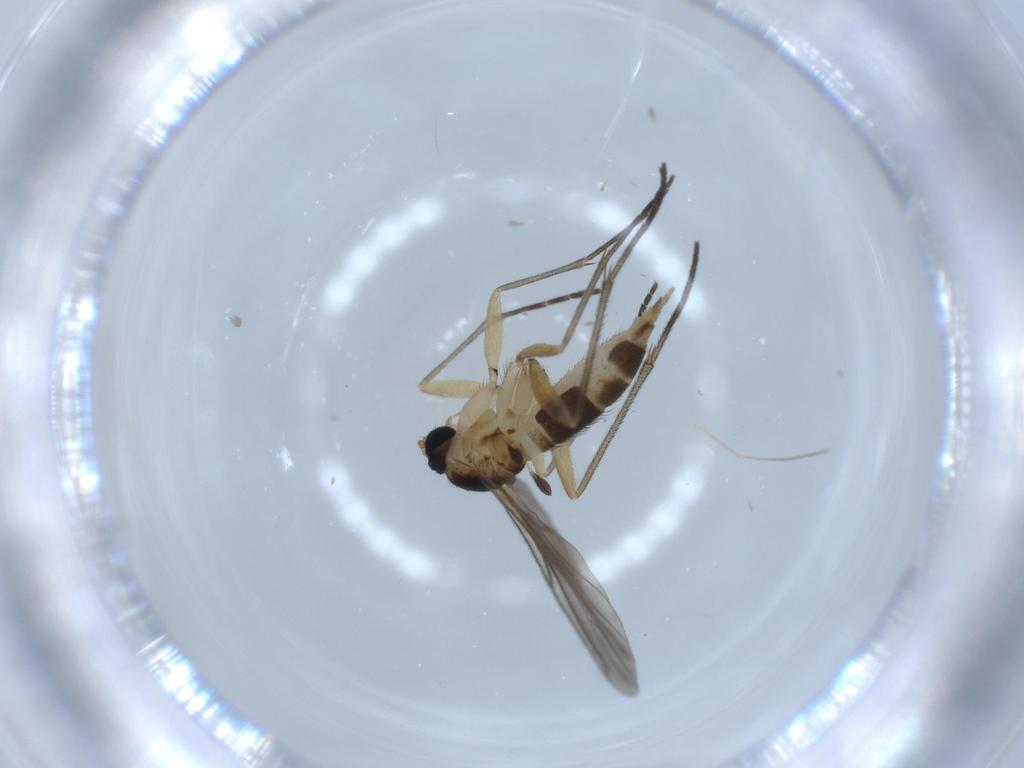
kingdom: Animalia
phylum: Arthropoda
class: Insecta
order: Diptera
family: Sciaridae
